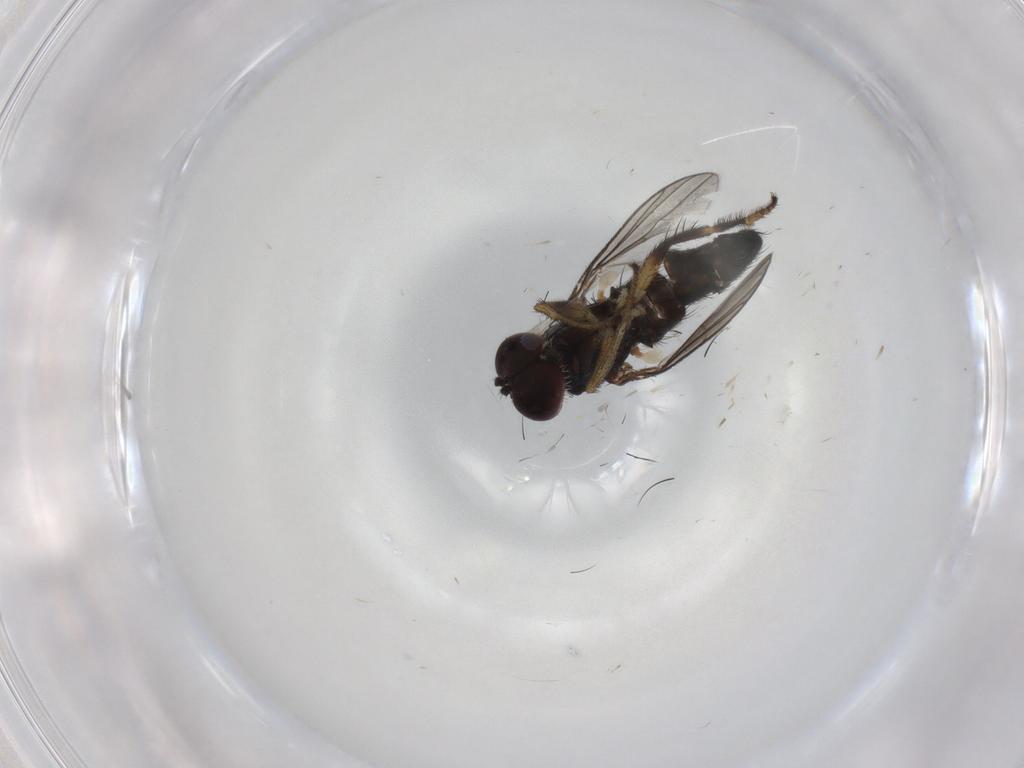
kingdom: Animalia
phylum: Arthropoda
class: Insecta
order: Diptera
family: Dolichopodidae
